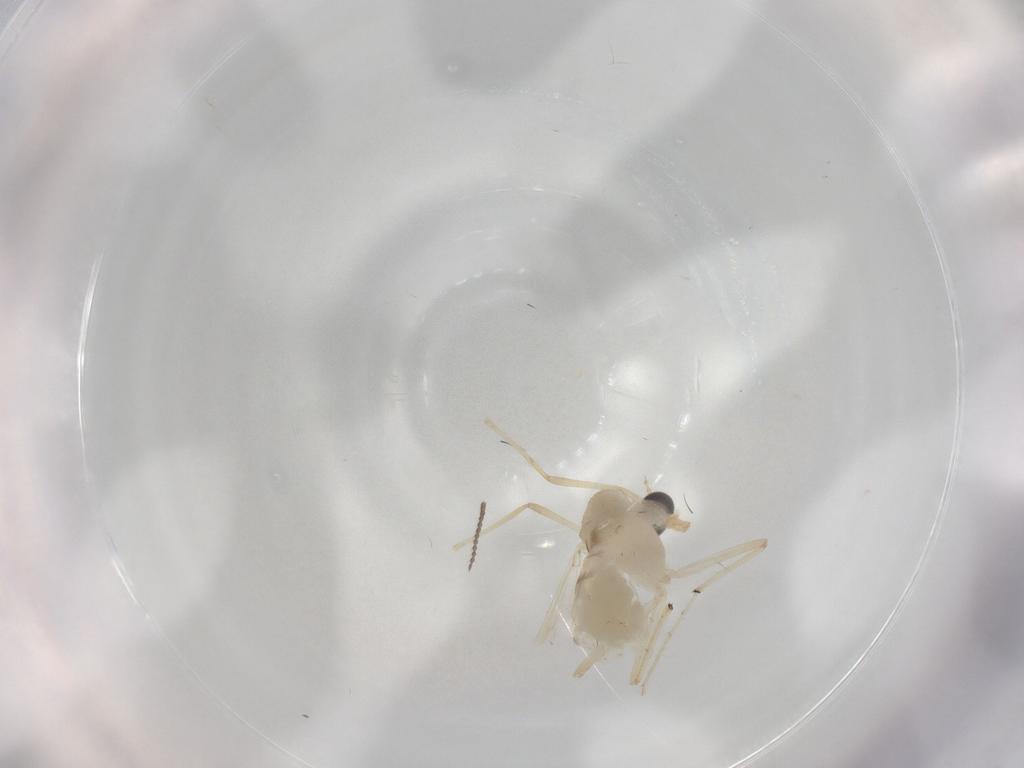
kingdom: Animalia
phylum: Arthropoda
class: Insecta
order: Diptera
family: Chironomidae
